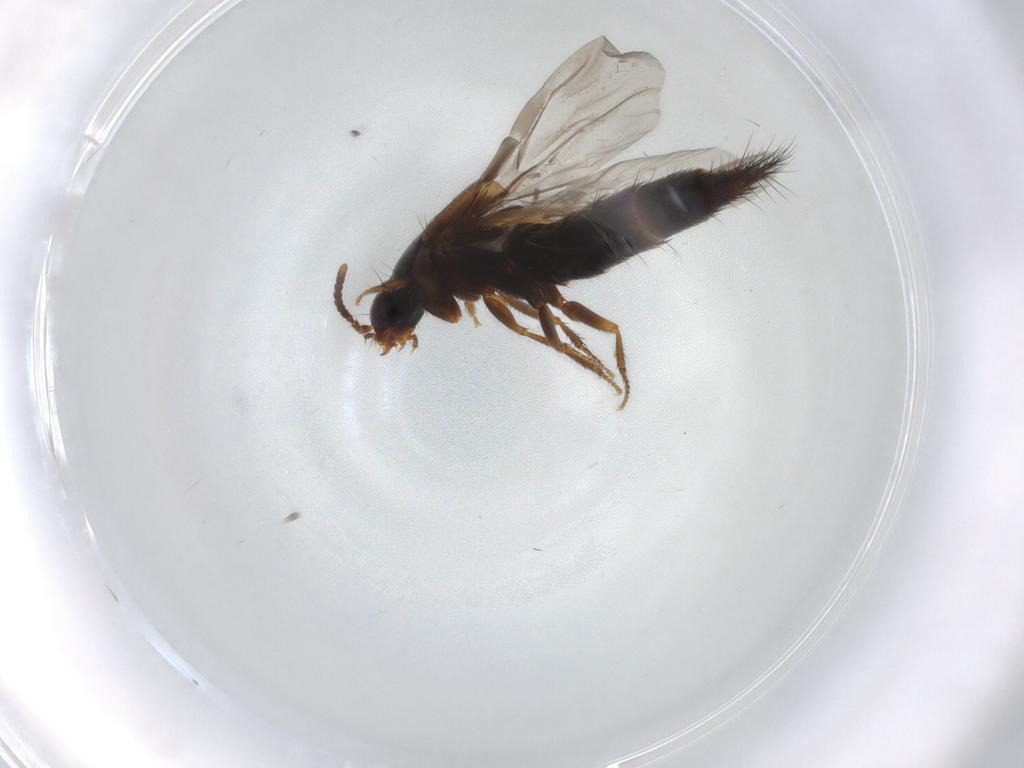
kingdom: Animalia
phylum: Arthropoda
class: Insecta
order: Coleoptera
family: Staphylinidae
